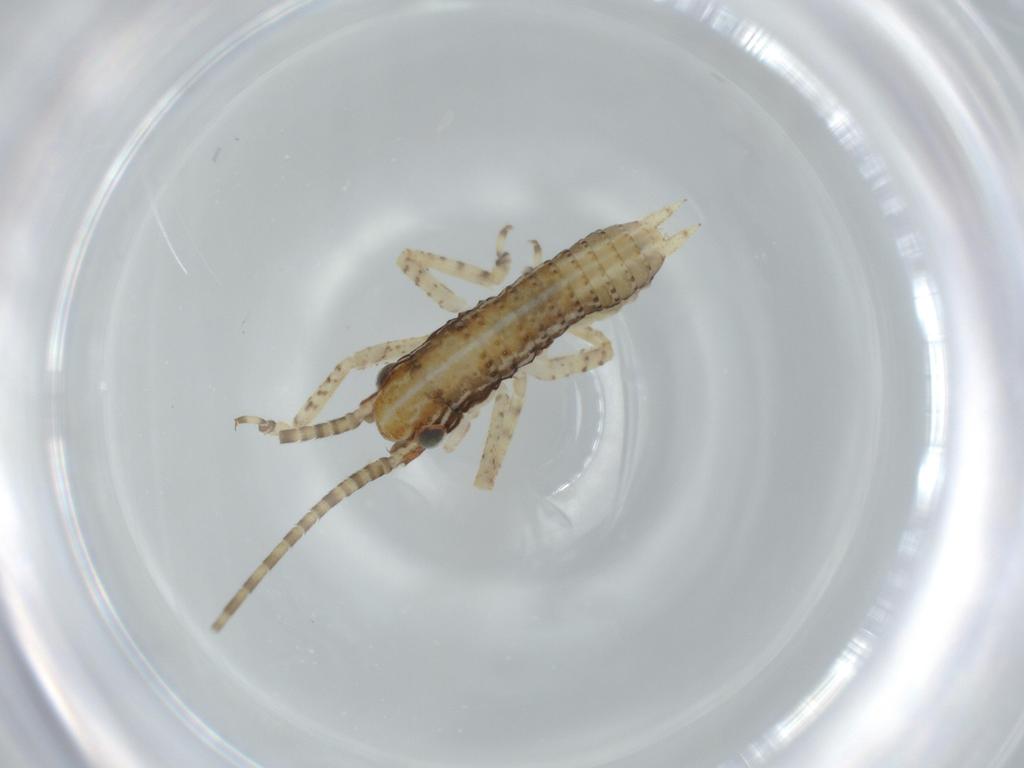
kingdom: Animalia
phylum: Arthropoda
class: Insecta
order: Orthoptera
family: Gryllidae
